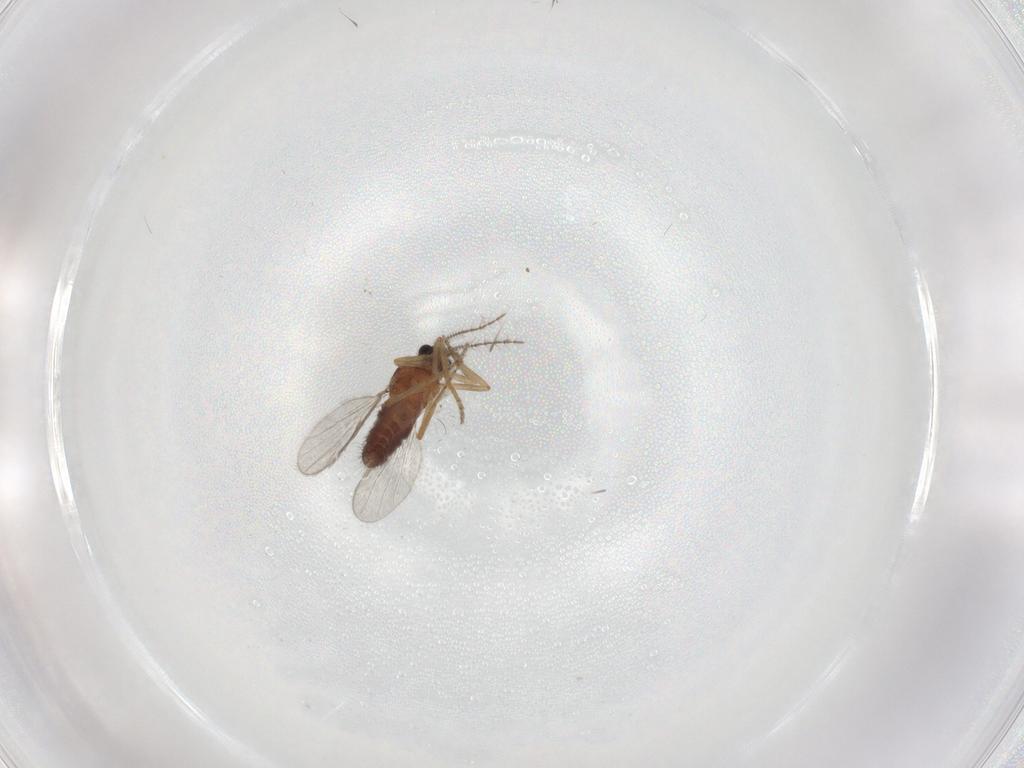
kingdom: Animalia
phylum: Arthropoda
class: Insecta
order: Diptera
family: Ceratopogonidae
